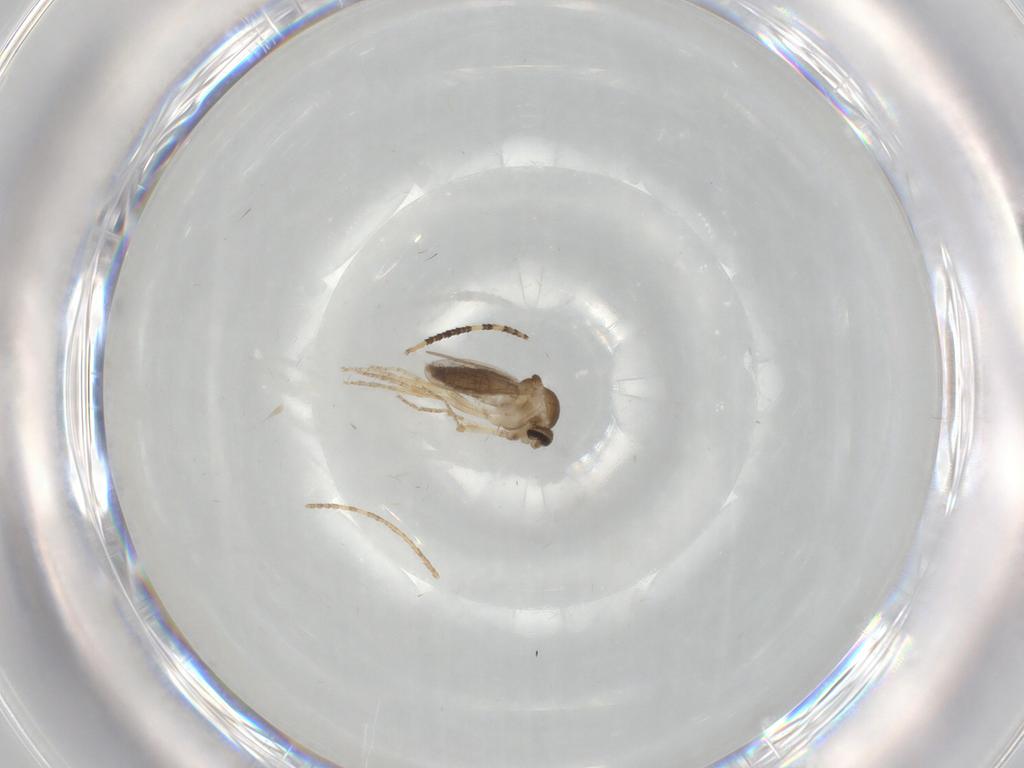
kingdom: Animalia
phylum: Arthropoda
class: Insecta
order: Diptera
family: Ceratopogonidae
